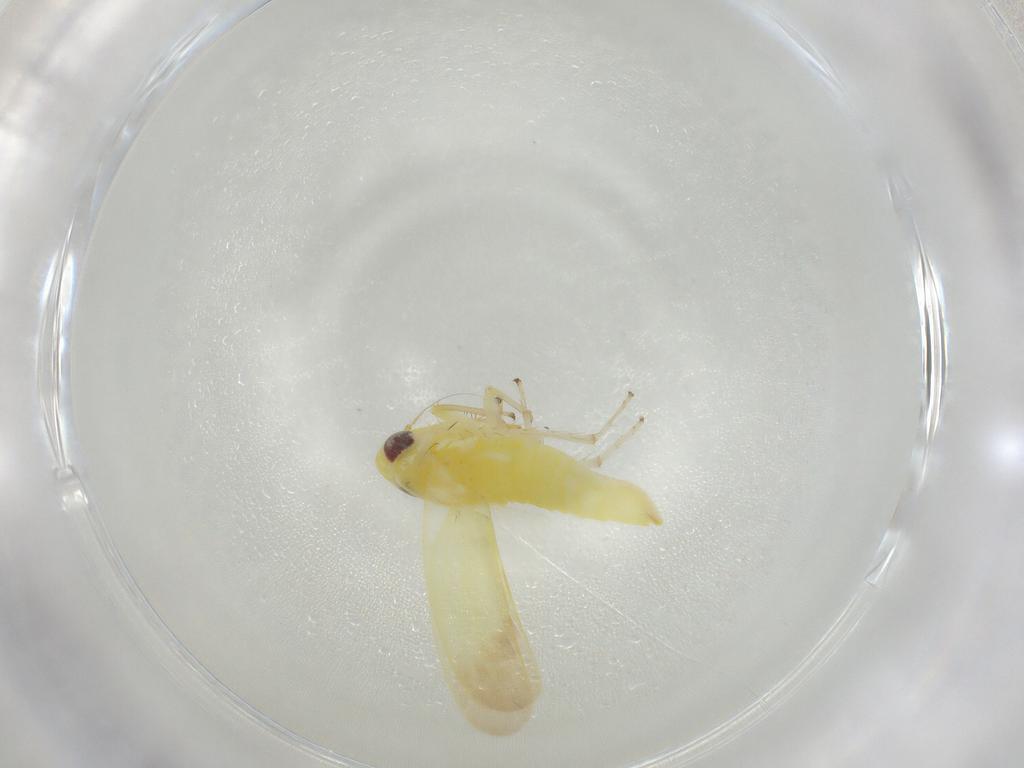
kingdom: Animalia
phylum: Arthropoda
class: Insecta
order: Hemiptera
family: Cicadellidae
